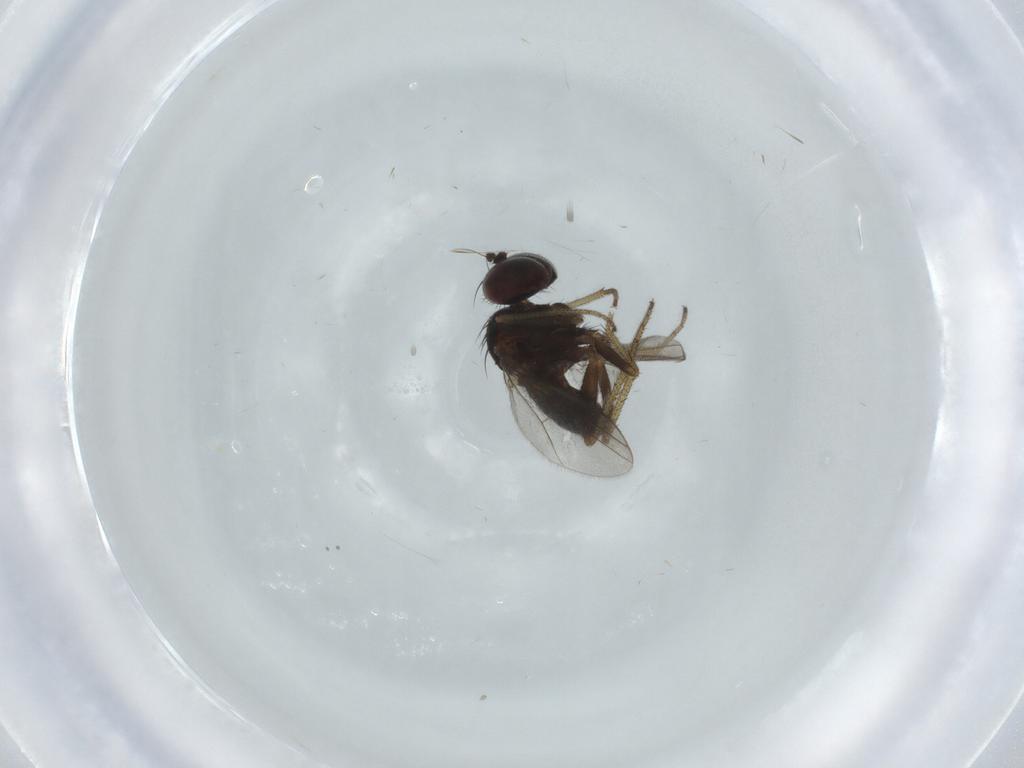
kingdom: Animalia
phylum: Arthropoda
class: Insecta
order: Diptera
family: Dolichopodidae
